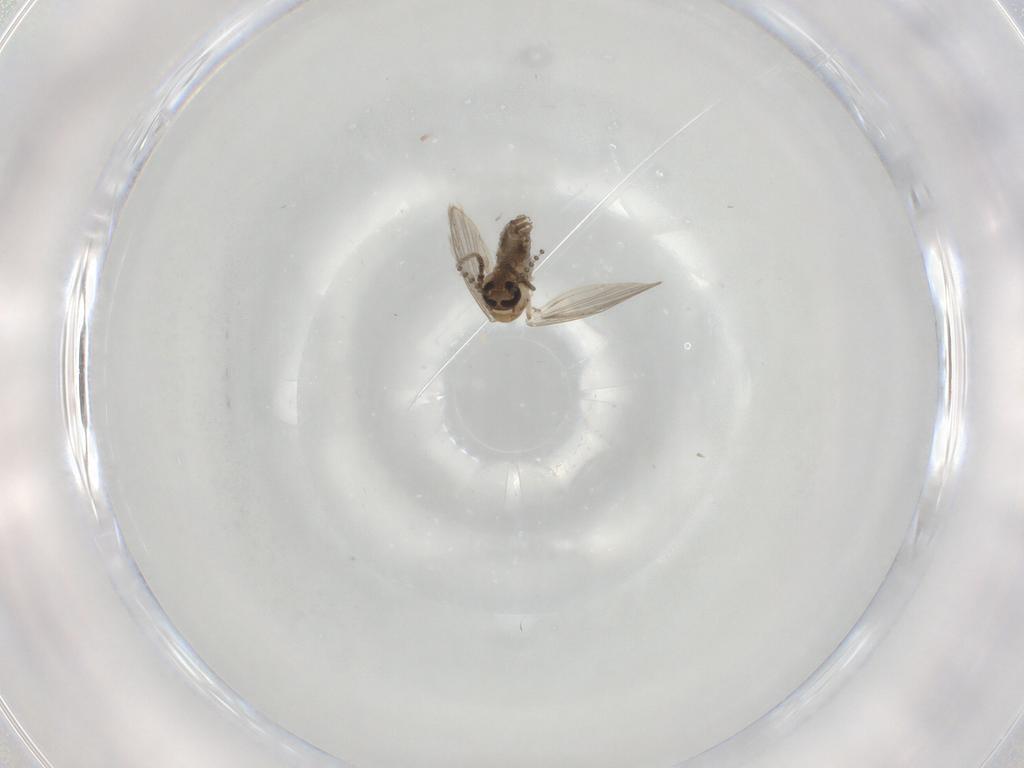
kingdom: Animalia
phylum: Arthropoda
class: Insecta
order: Diptera
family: Psychodidae
